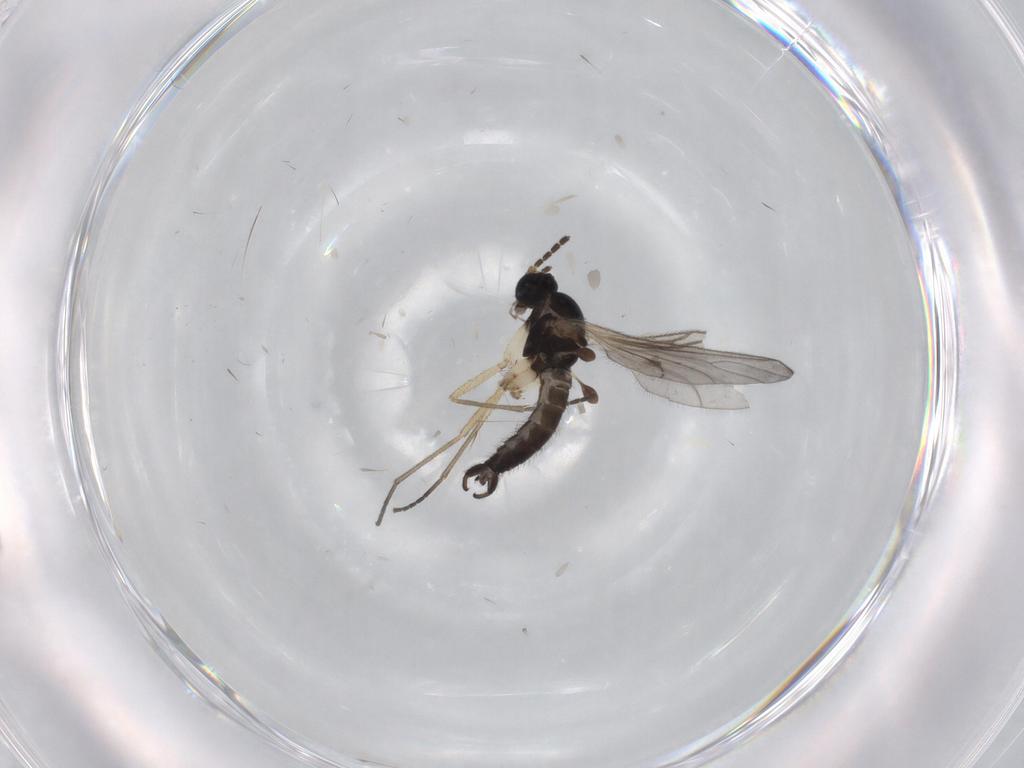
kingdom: Animalia
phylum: Arthropoda
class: Insecta
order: Diptera
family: Sciaridae
